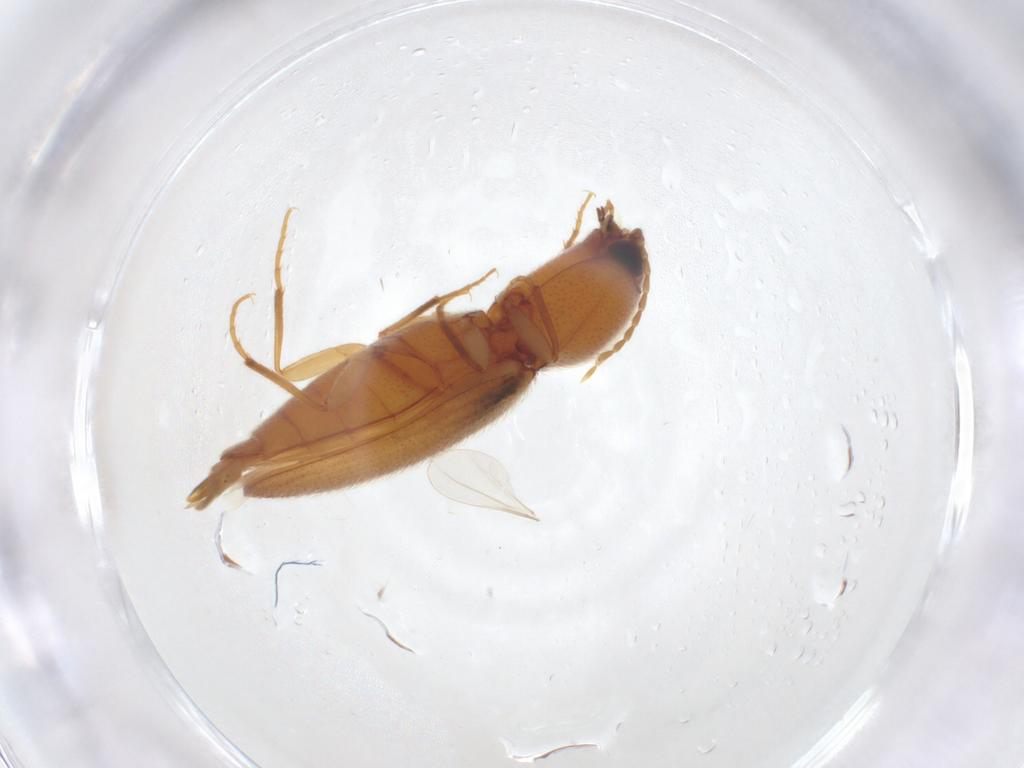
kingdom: Animalia
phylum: Arthropoda
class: Insecta
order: Coleoptera
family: Elateridae
